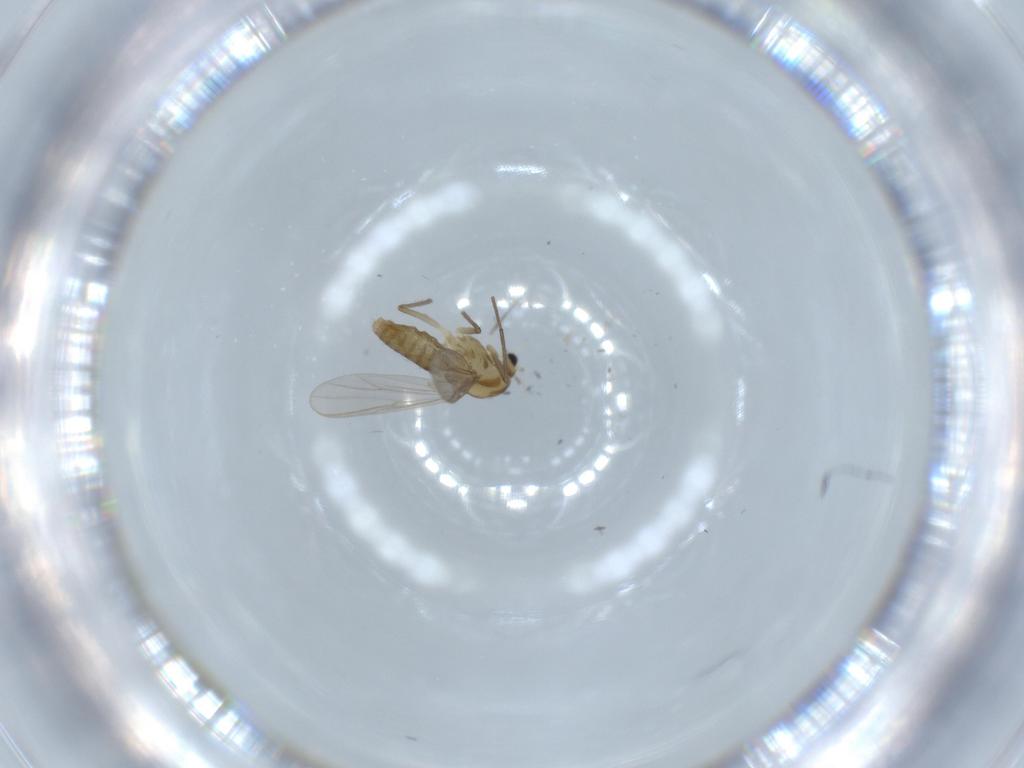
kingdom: Animalia
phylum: Arthropoda
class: Insecta
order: Diptera
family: Chironomidae
